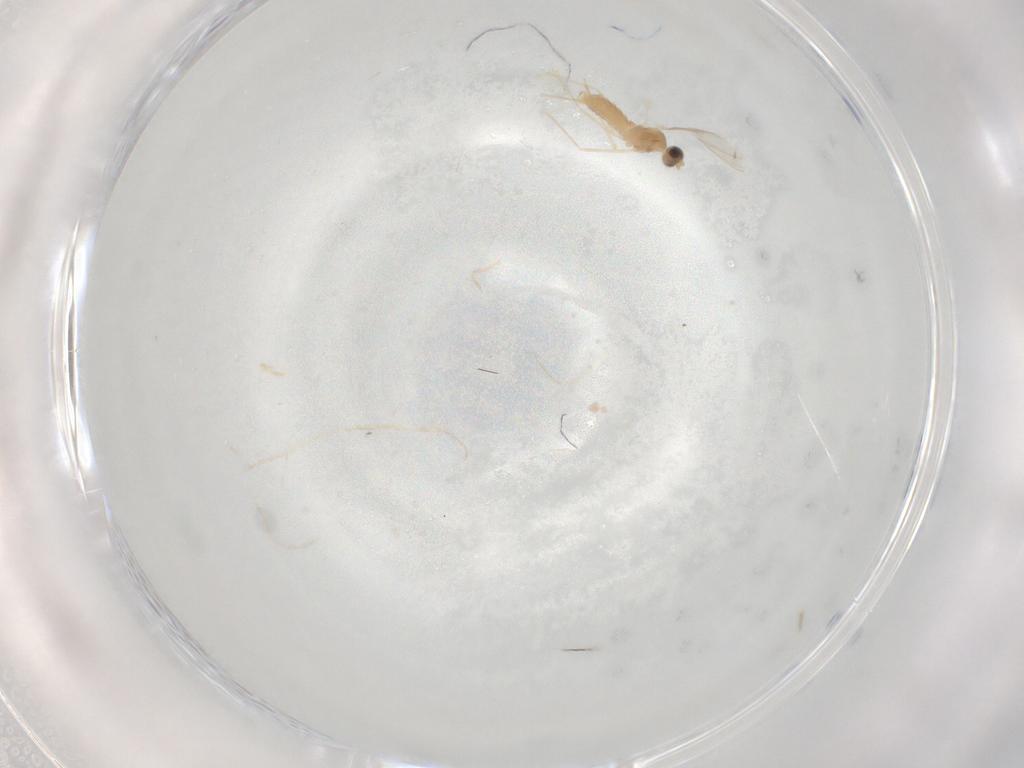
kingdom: Animalia
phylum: Arthropoda
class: Insecta
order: Diptera
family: Cecidomyiidae
